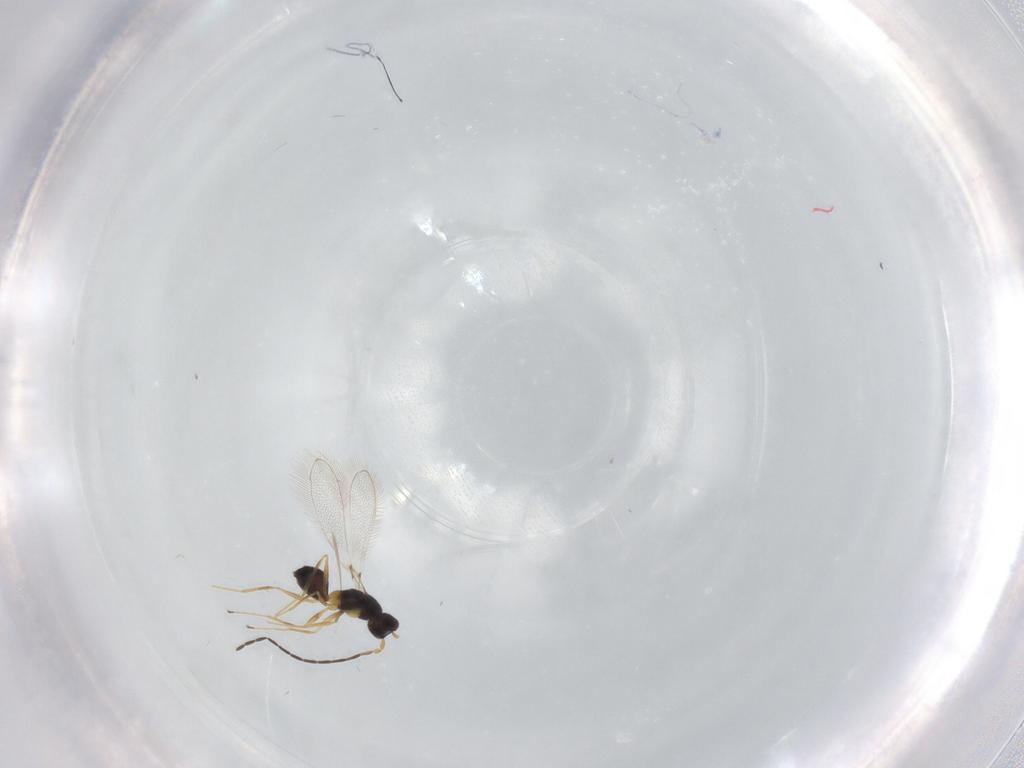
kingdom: Animalia
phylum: Arthropoda
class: Insecta
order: Hymenoptera
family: Mymaridae
